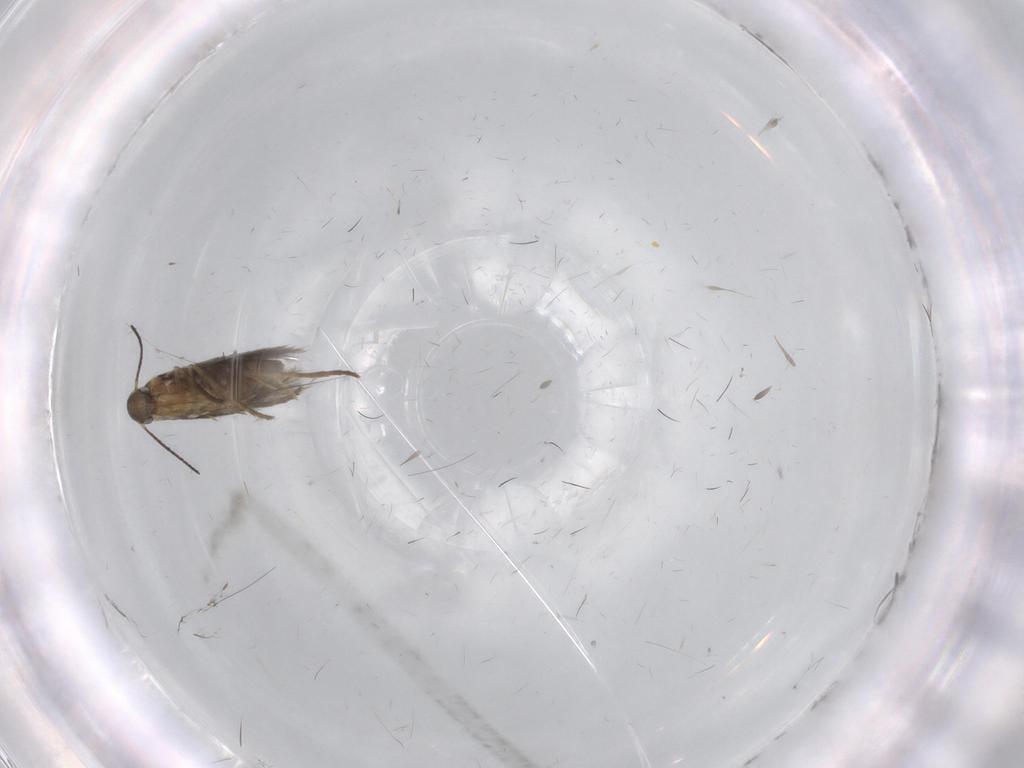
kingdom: Animalia
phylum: Arthropoda
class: Insecta
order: Lepidoptera
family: Heliozelidae
